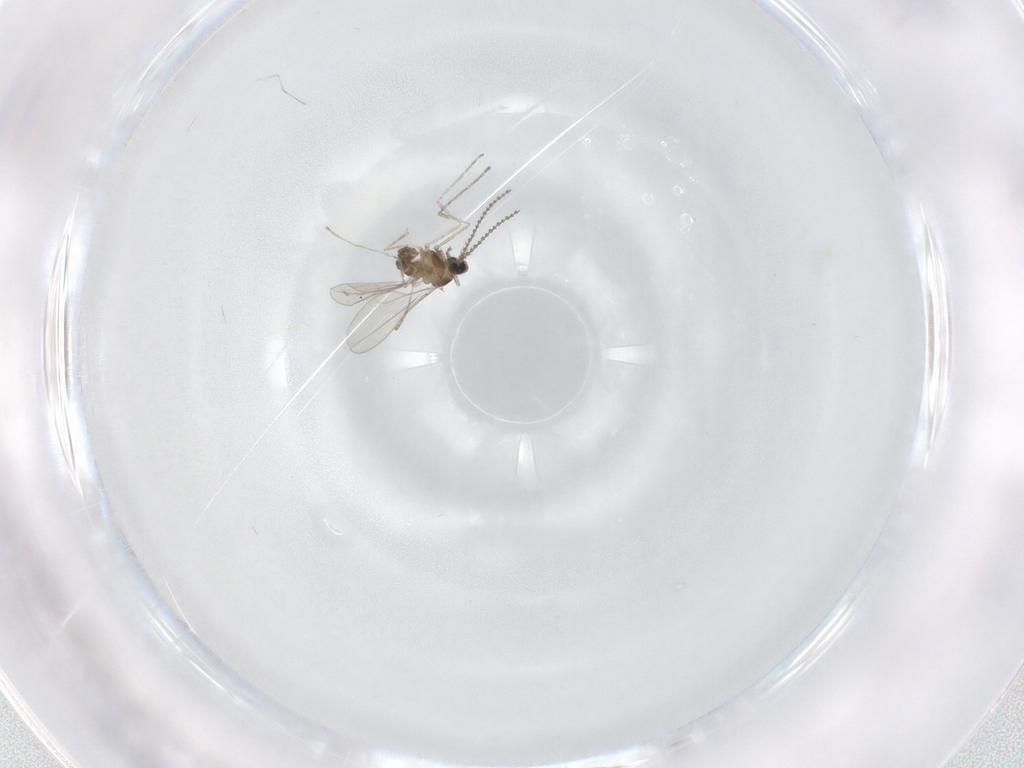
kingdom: Animalia
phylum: Arthropoda
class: Insecta
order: Diptera
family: Cecidomyiidae
